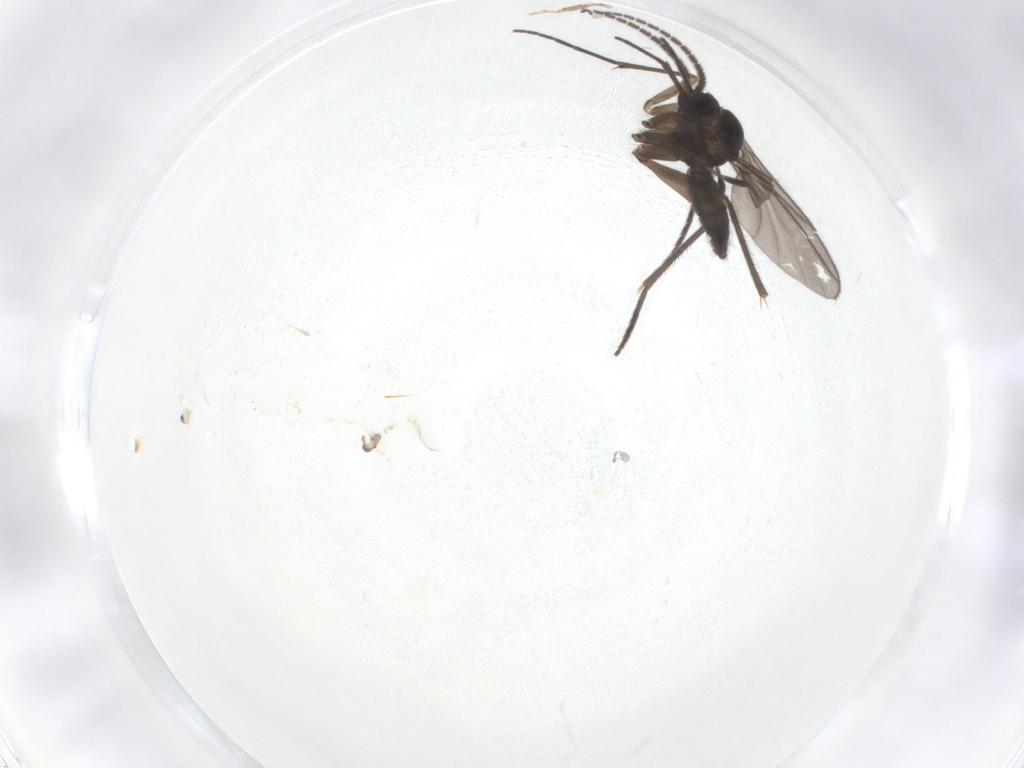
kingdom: Animalia
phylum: Arthropoda
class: Insecta
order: Diptera
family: Sciaridae
